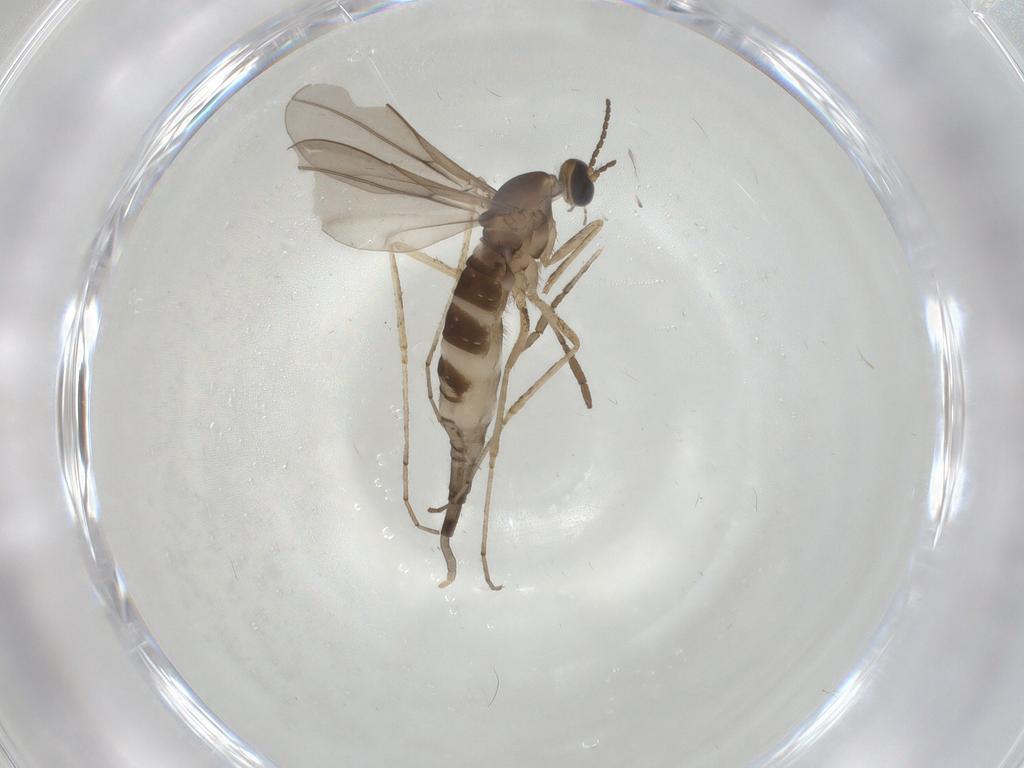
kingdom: Animalia
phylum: Arthropoda
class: Insecta
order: Diptera
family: Cecidomyiidae
